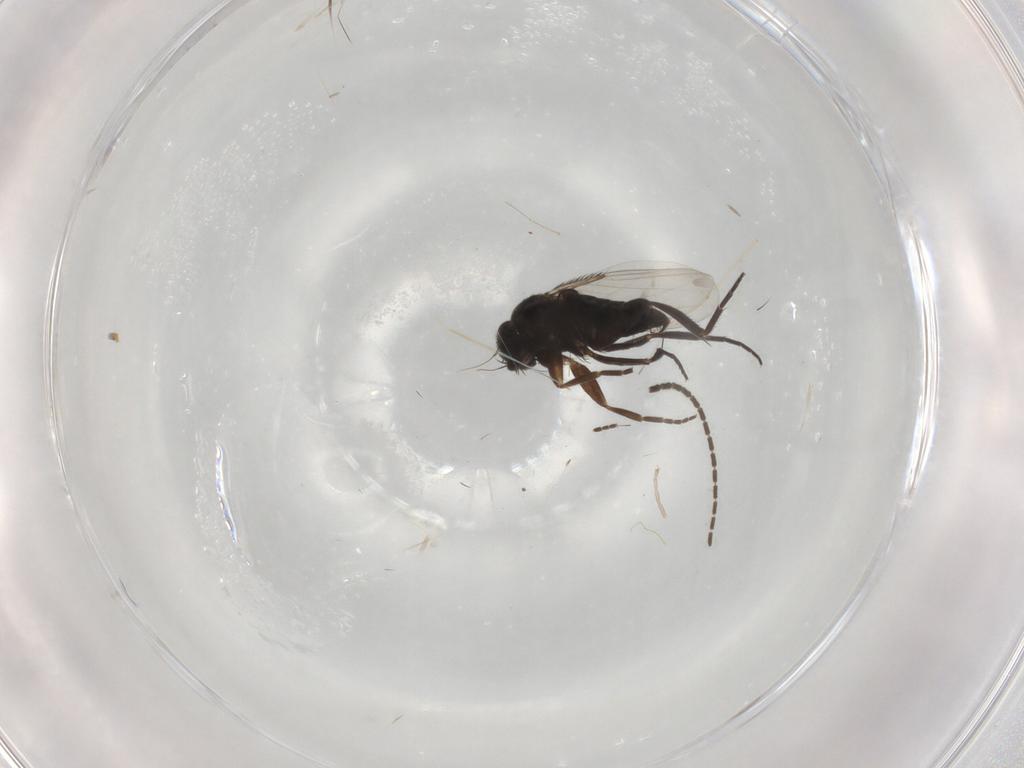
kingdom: Animalia
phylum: Arthropoda
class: Insecta
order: Diptera
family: Phoridae
